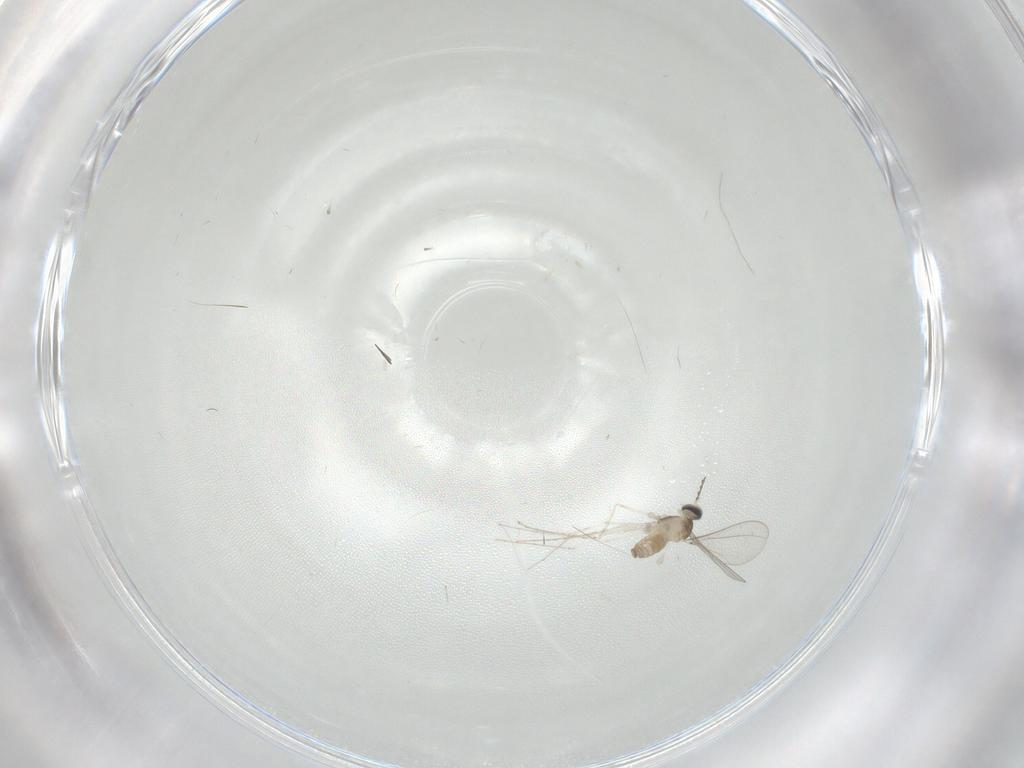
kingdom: Animalia
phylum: Arthropoda
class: Insecta
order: Diptera
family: Cecidomyiidae
